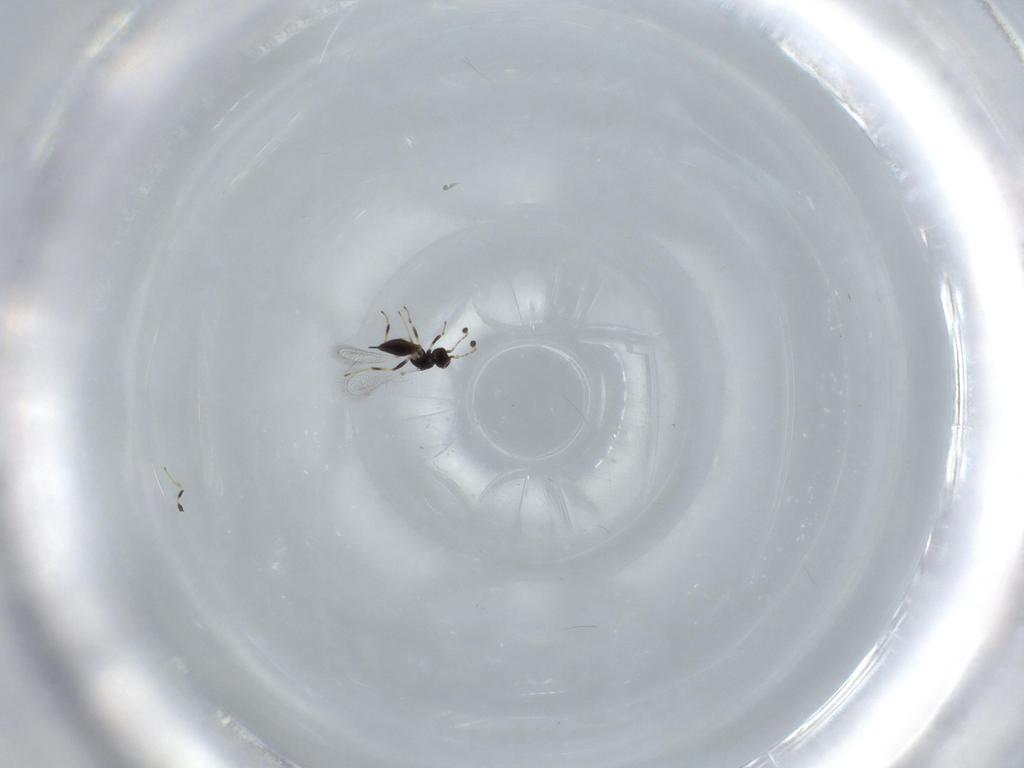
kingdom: Animalia
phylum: Arthropoda
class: Insecta
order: Hymenoptera
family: Mymaridae
